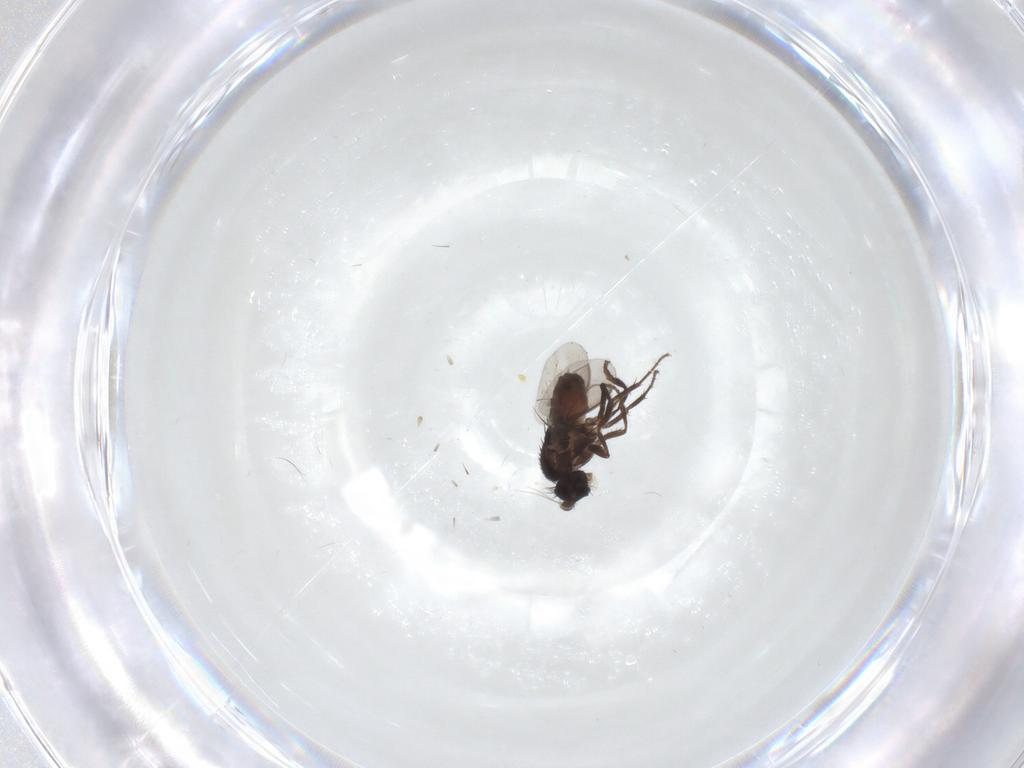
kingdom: Animalia
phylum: Arthropoda
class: Insecta
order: Diptera
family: Sphaeroceridae
